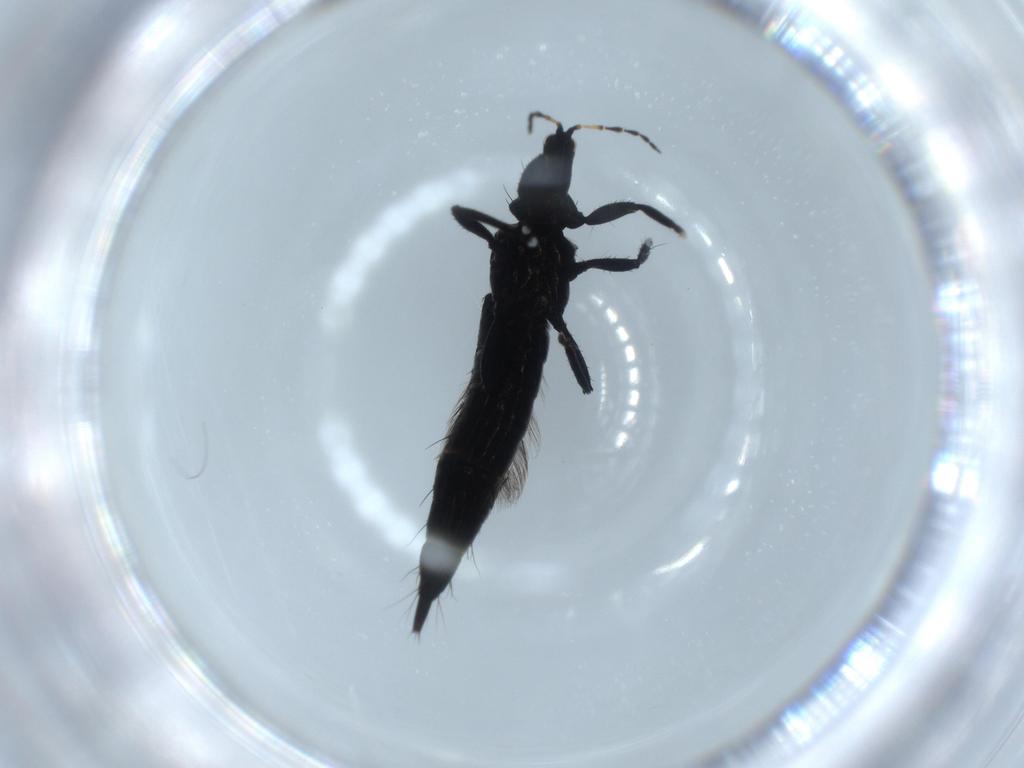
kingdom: Animalia
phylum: Arthropoda
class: Insecta
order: Thysanoptera
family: Phlaeothripidae
